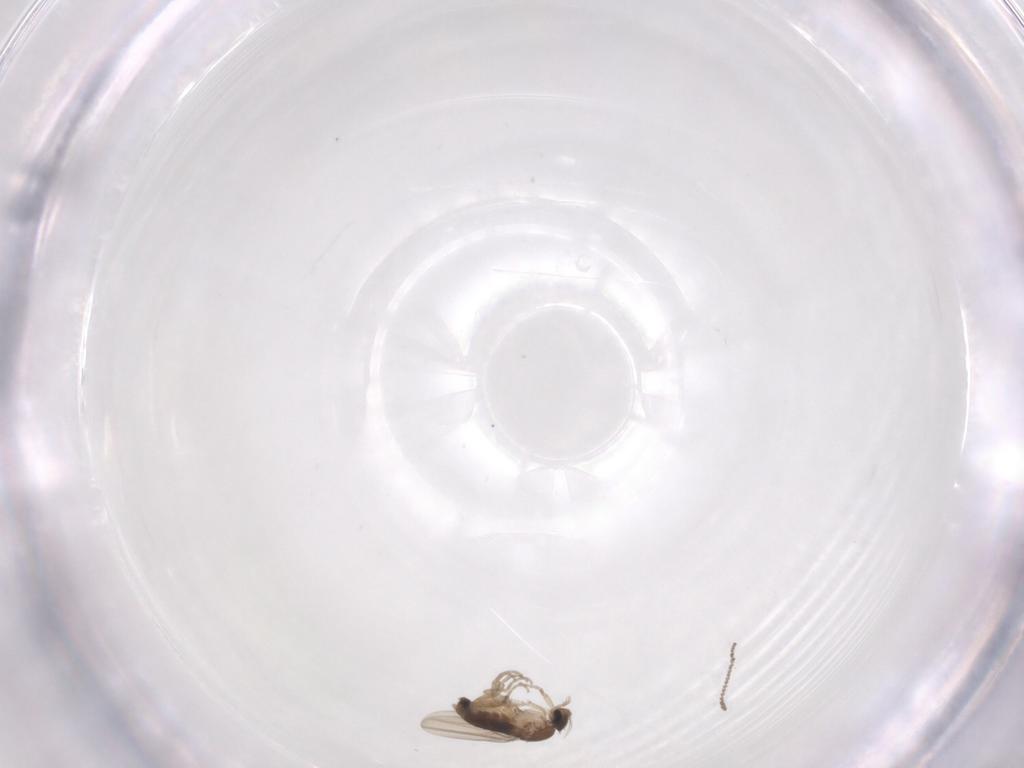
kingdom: Animalia
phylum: Arthropoda
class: Insecta
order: Diptera
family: Cecidomyiidae
